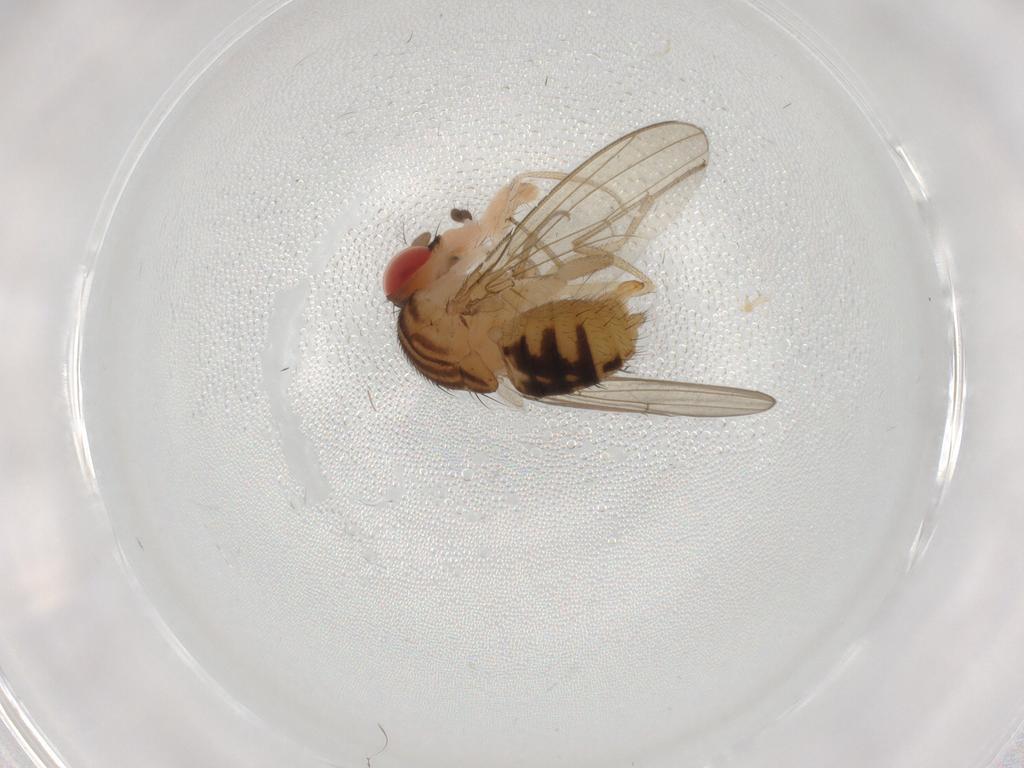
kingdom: Animalia
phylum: Arthropoda
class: Insecta
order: Diptera
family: Drosophilidae
